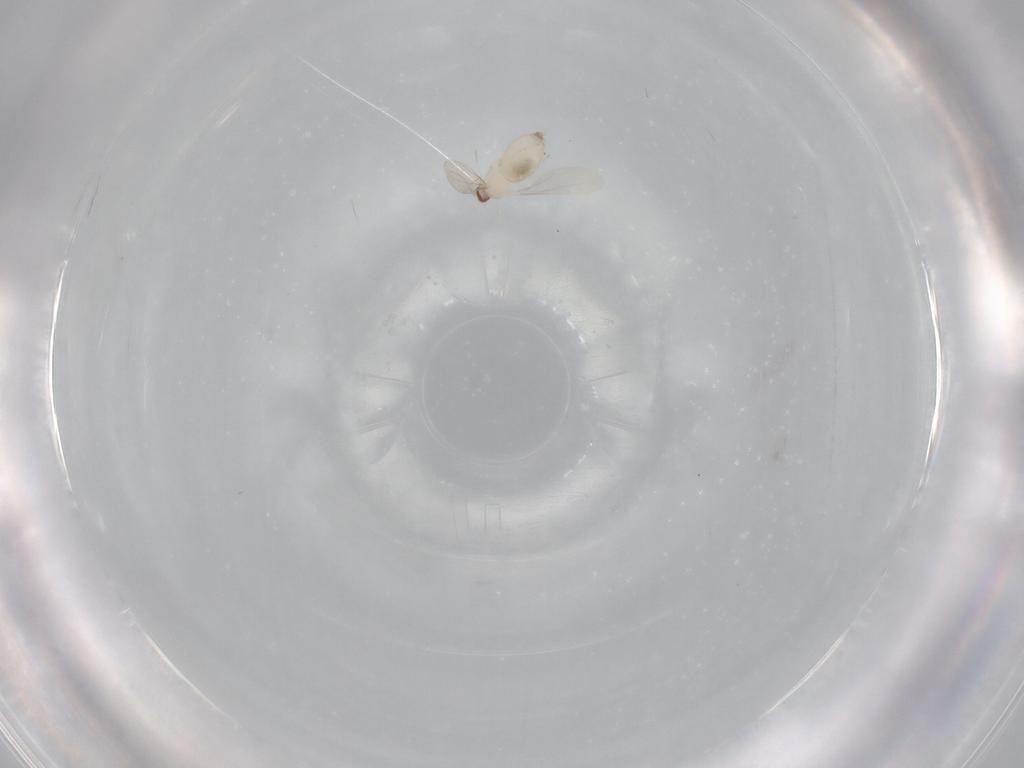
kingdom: Animalia
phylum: Arthropoda
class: Insecta
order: Diptera
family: Cecidomyiidae
